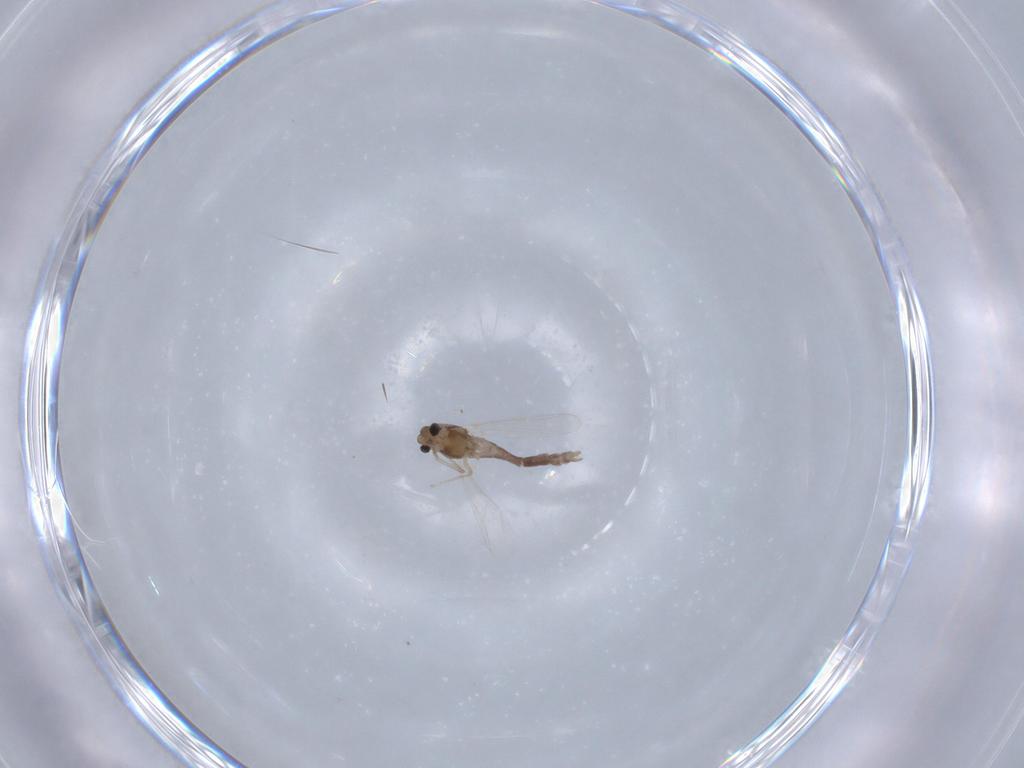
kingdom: Animalia
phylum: Arthropoda
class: Insecta
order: Diptera
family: Chironomidae
